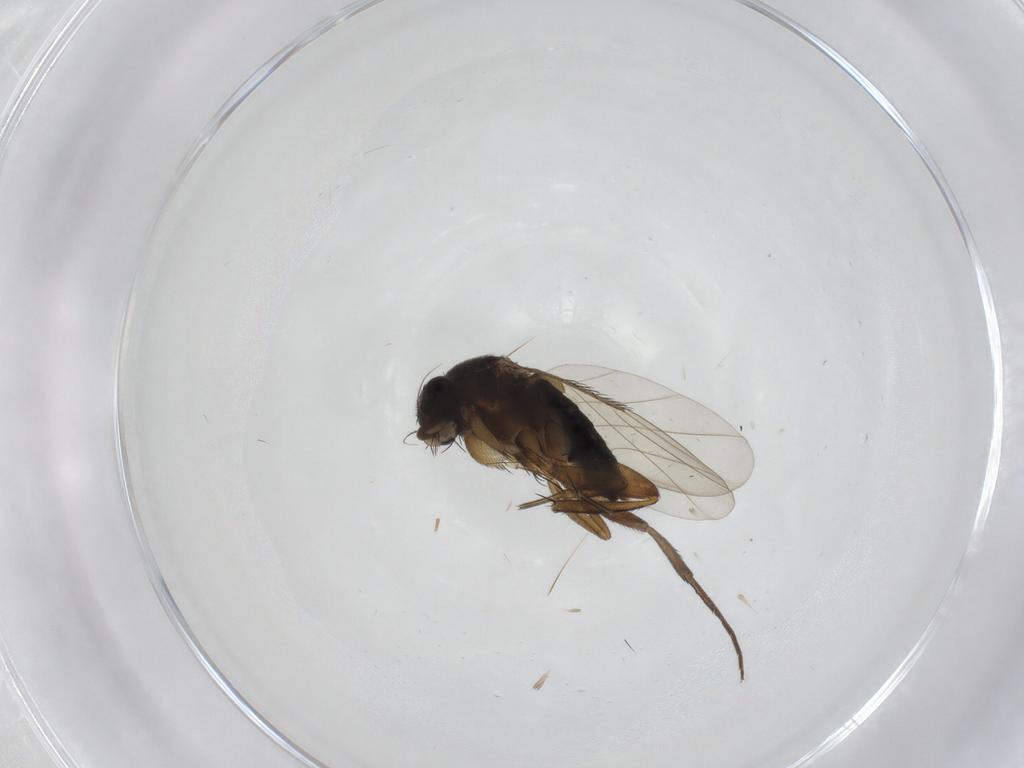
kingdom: Animalia
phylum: Arthropoda
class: Insecta
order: Diptera
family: Phoridae
